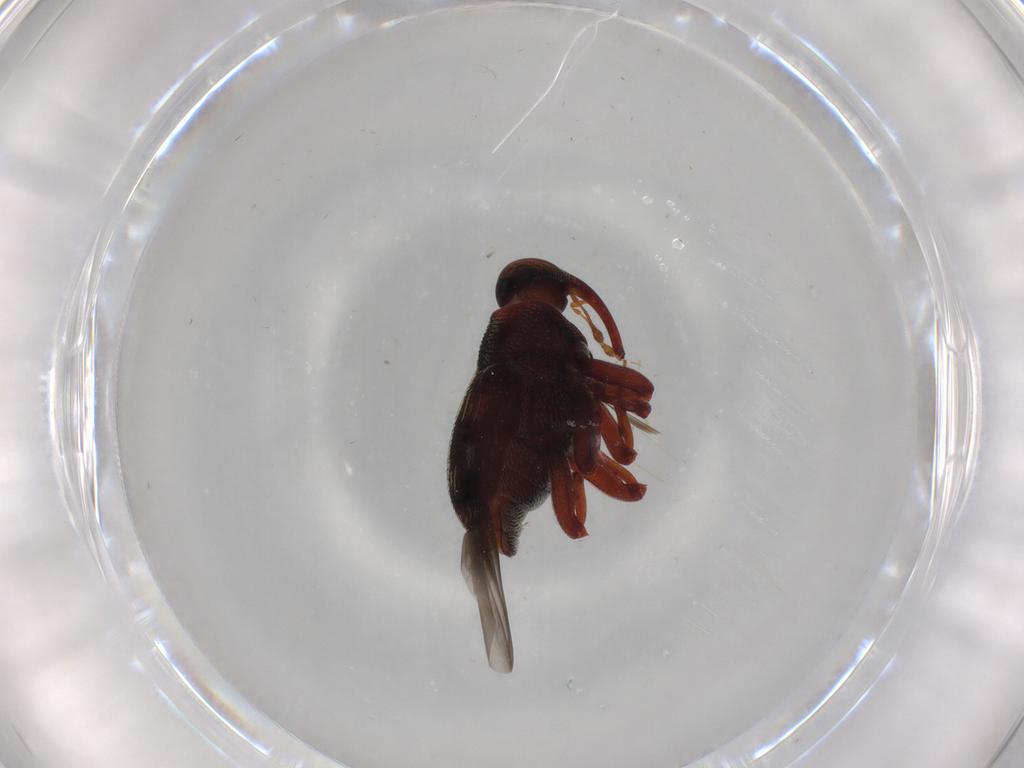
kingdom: Animalia
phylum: Arthropoda
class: Insecta
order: Coleoptera
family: Curculionidae
